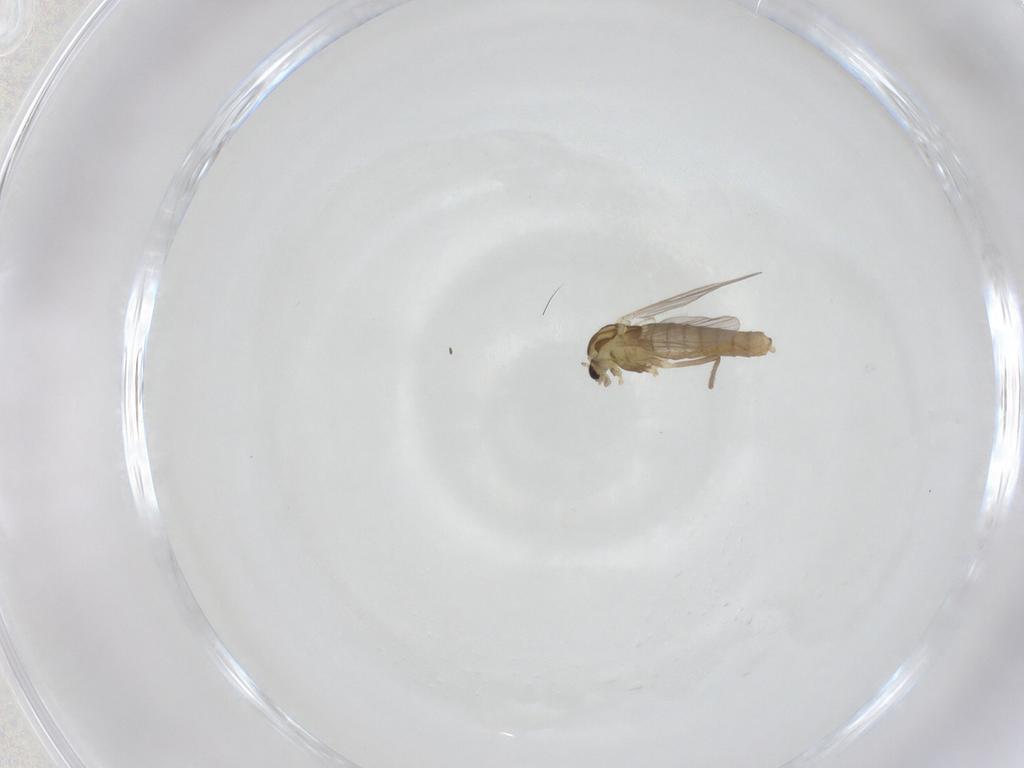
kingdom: Animalia
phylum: Arthropoda
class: Insecta
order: Diptera
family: Chironomidae
